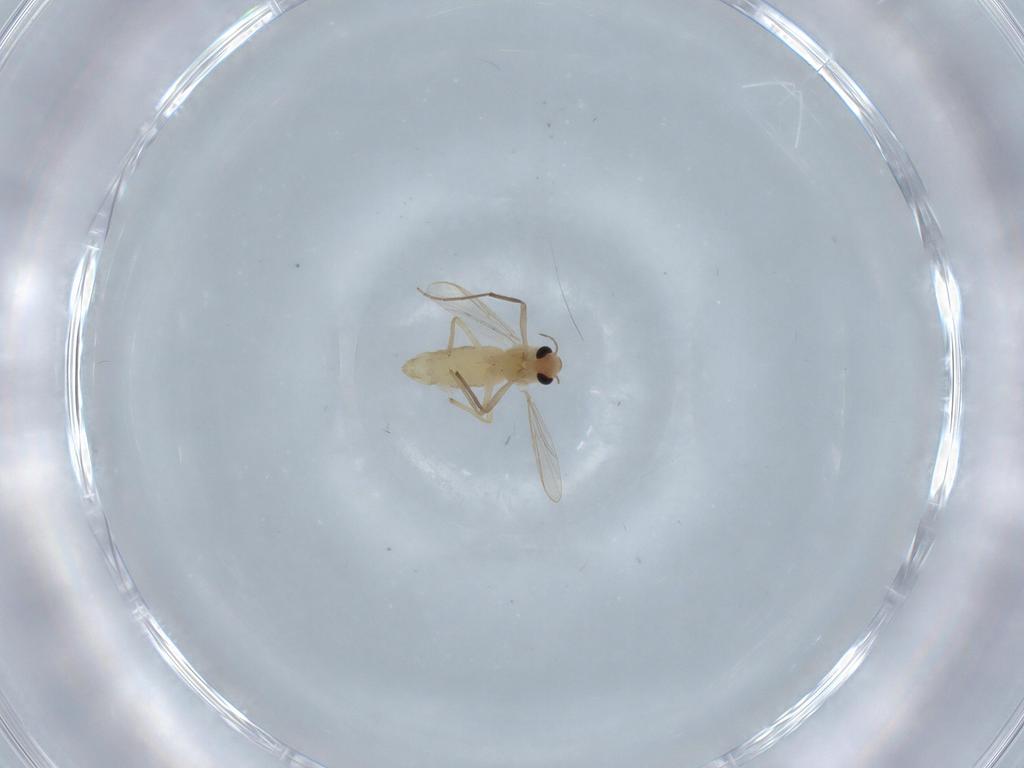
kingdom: Animalia
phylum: Arthropoda
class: Insecta
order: Diptera
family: Chironomidae
